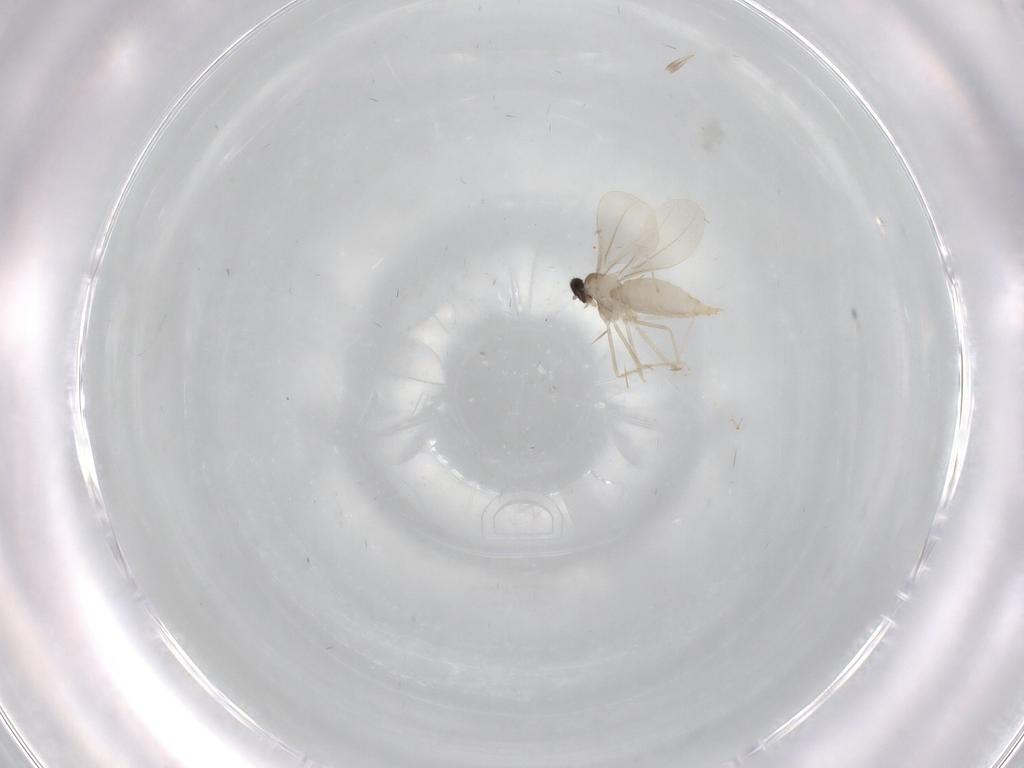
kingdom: Animalia
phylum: Arthropoda
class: Insecta
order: Diptera
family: Cecidomyiidae
